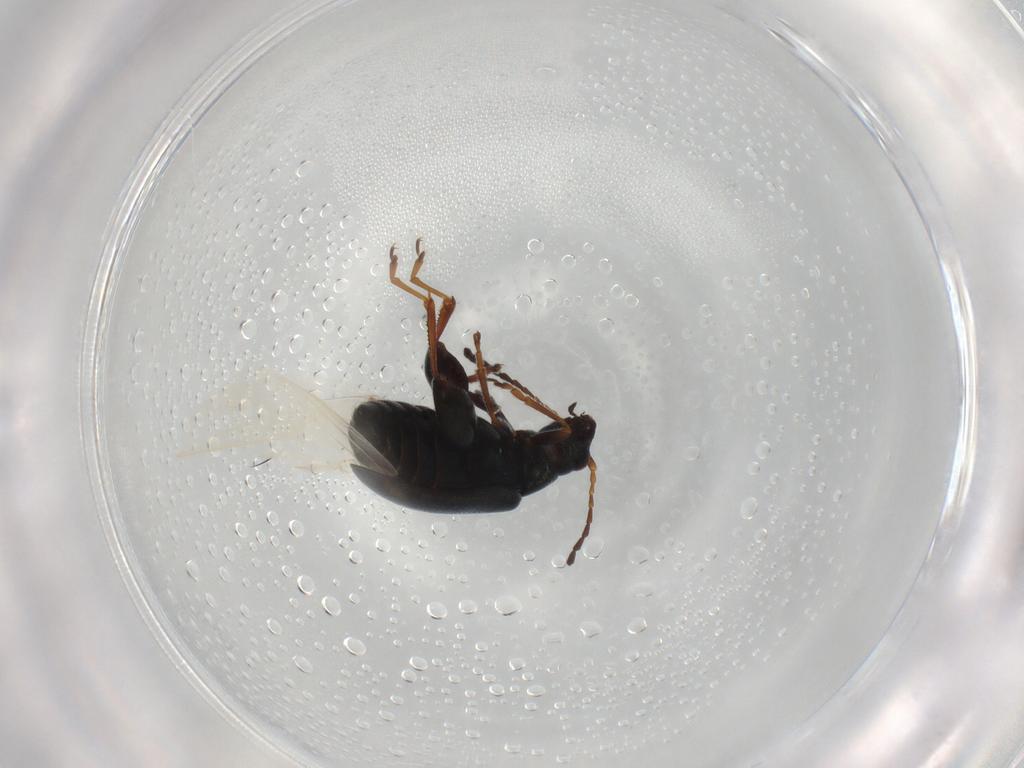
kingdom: Animalia
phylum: Arthropoda
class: Insecta
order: Coleoptera
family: Chrysomelidae
